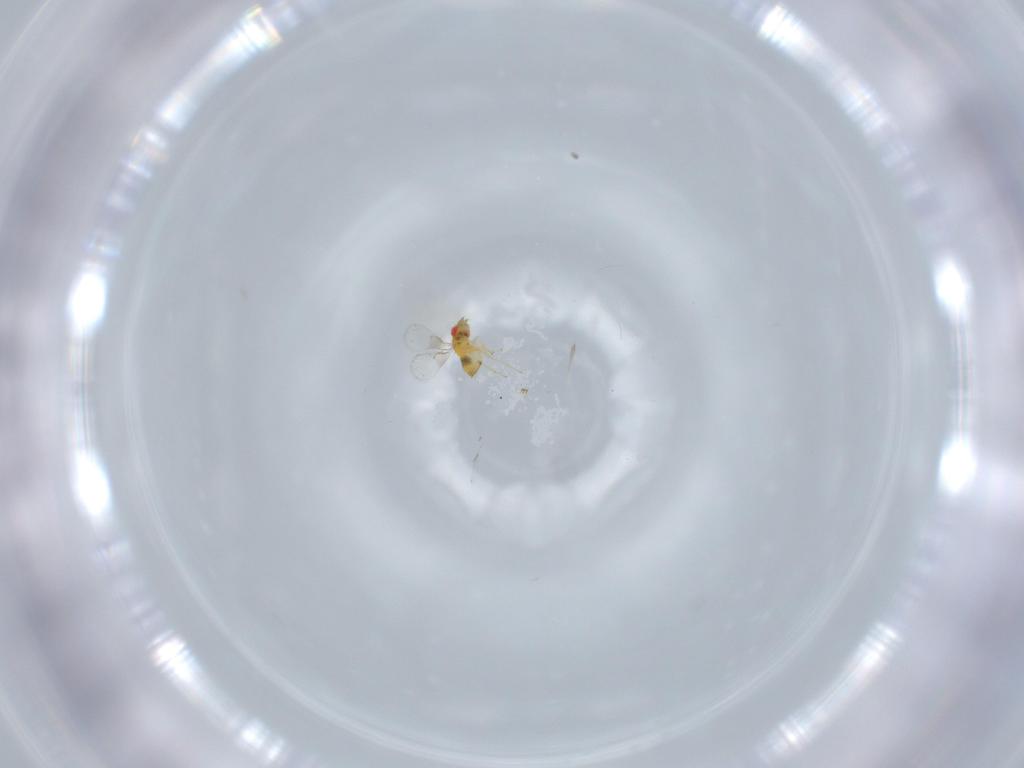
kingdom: Animalia
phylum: Arthropoda
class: Insecta
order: Hymenoptera
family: Trichogrammatidae
